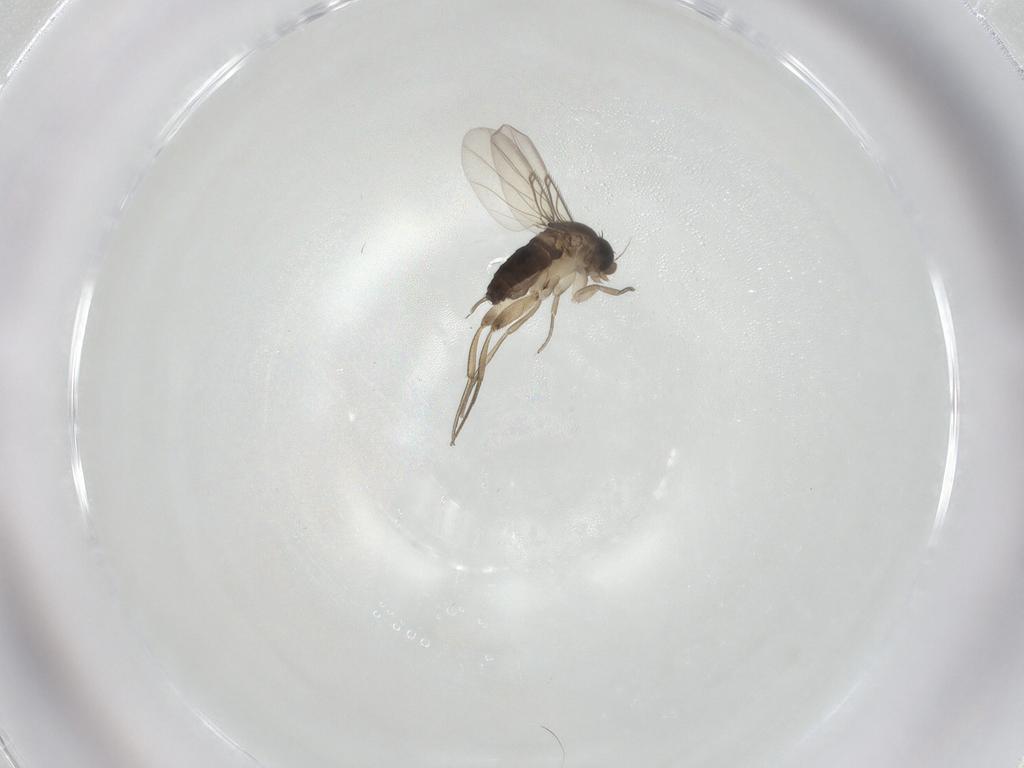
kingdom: Animalia
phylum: Arthropoda
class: Insecta
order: Diptera
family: Phoridae
